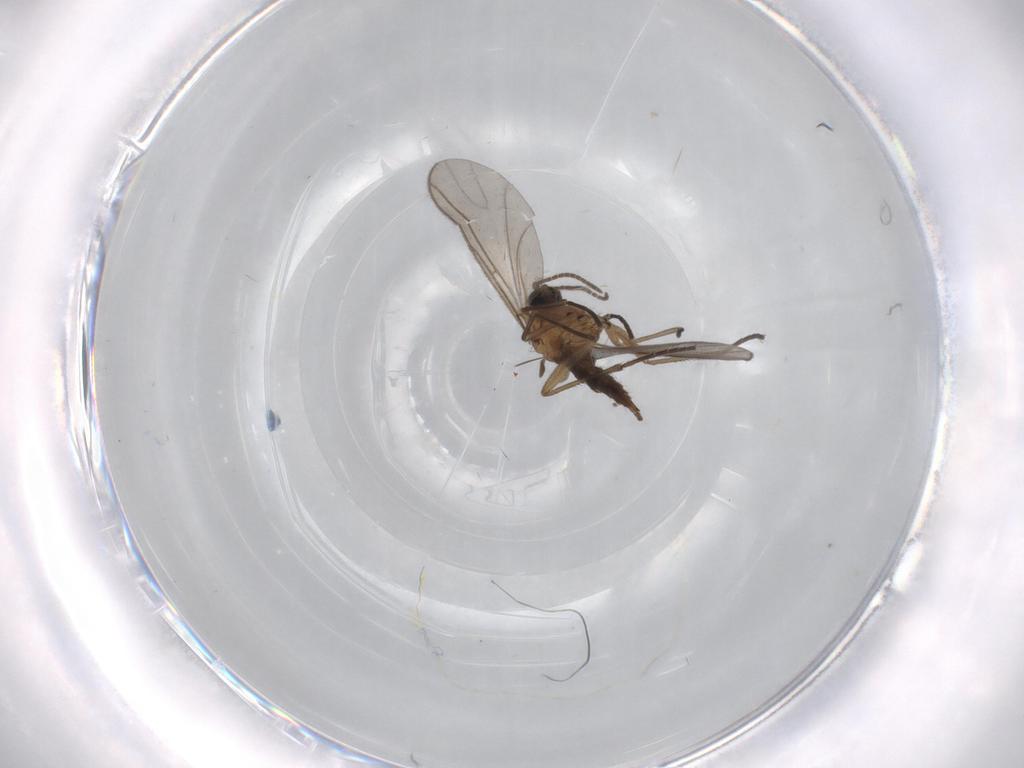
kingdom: Animalia
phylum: Arthropoda
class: Insecta
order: Diptera
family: Sciaridae
